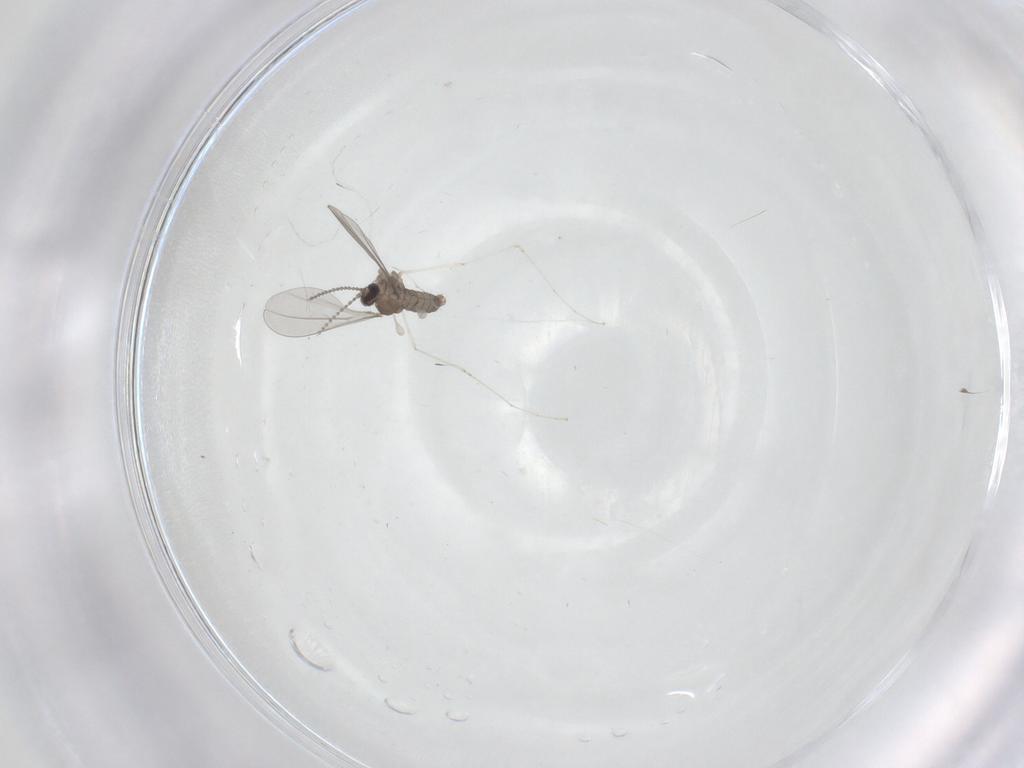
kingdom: Animalia
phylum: Arthropoda
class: Insecta
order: Diptera
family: Cecidomyiidae
